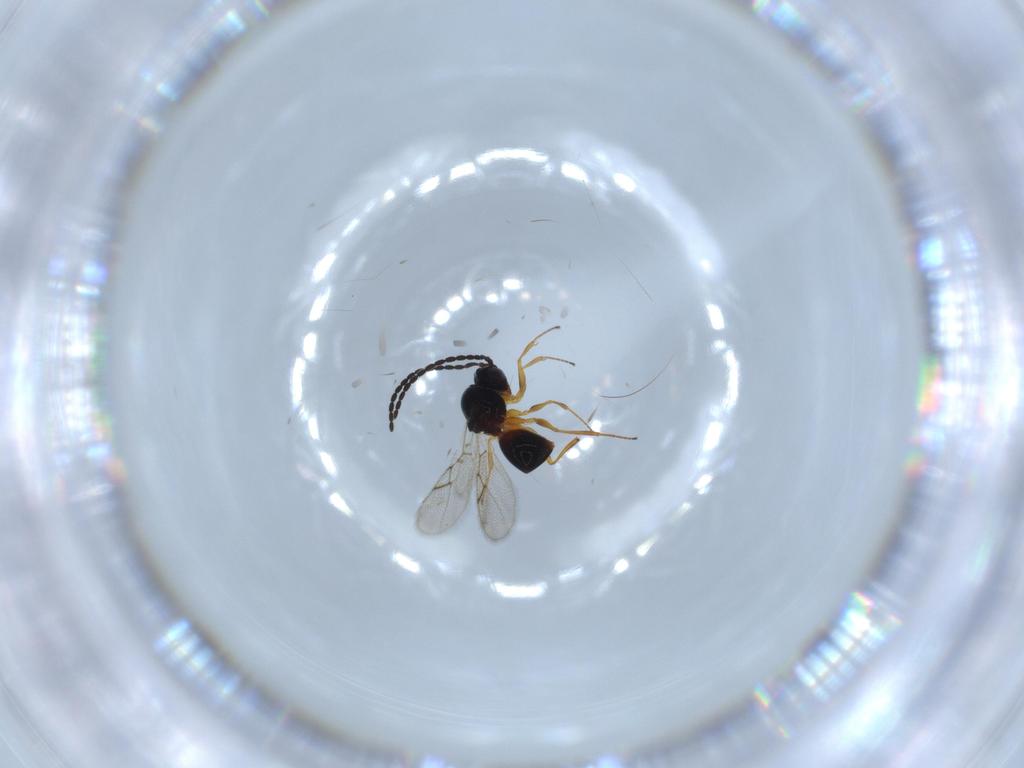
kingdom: Animalia
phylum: Arthropoda
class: Insecta
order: Hymenoptera
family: Figitidae
